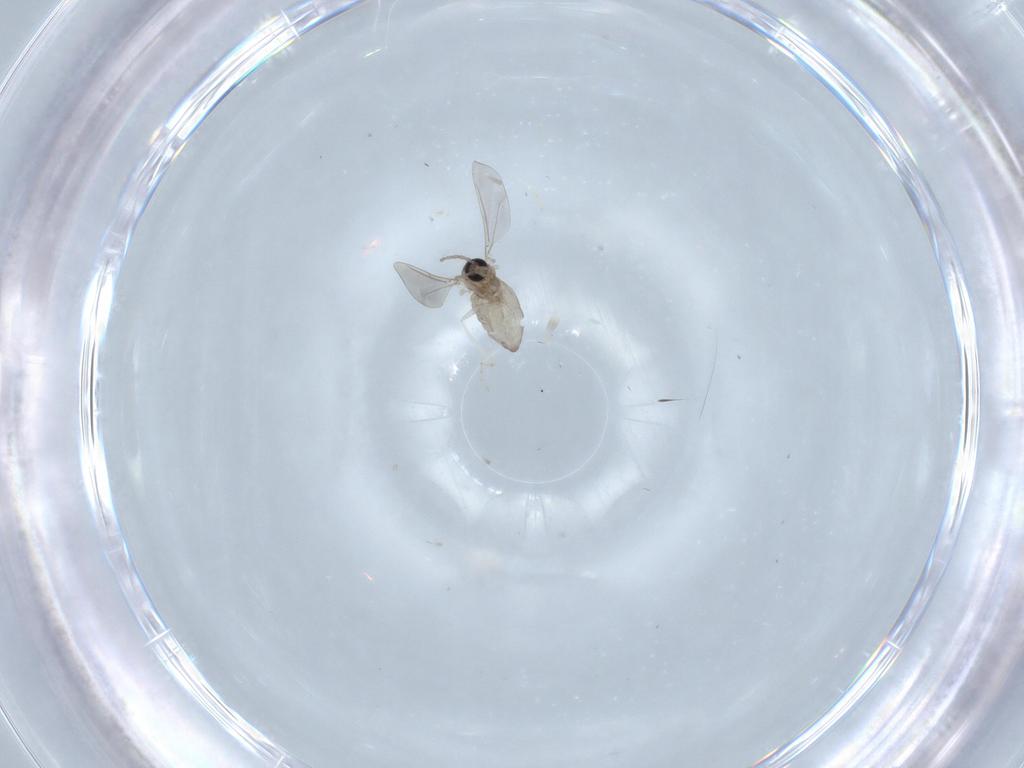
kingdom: Animalia
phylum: Arthropoda
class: Insecta
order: Diptera
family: Cecidomyiidae
